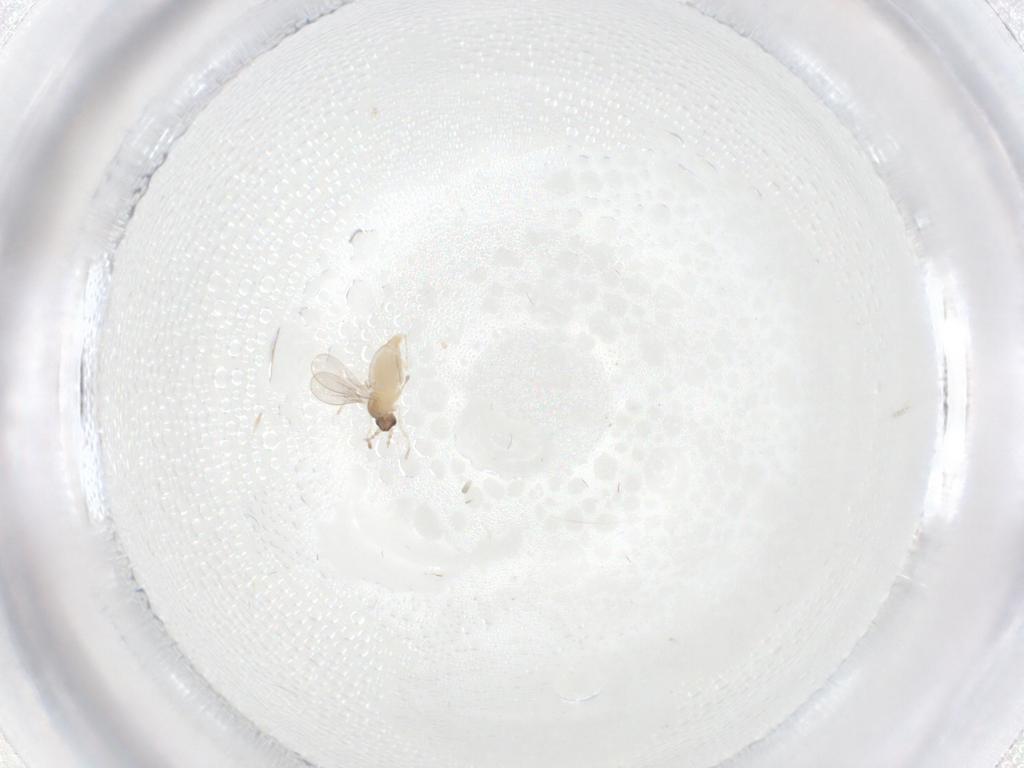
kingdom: Animalia
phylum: Arthropoda
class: Insecta
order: Diptera
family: Cecidomyiidae
